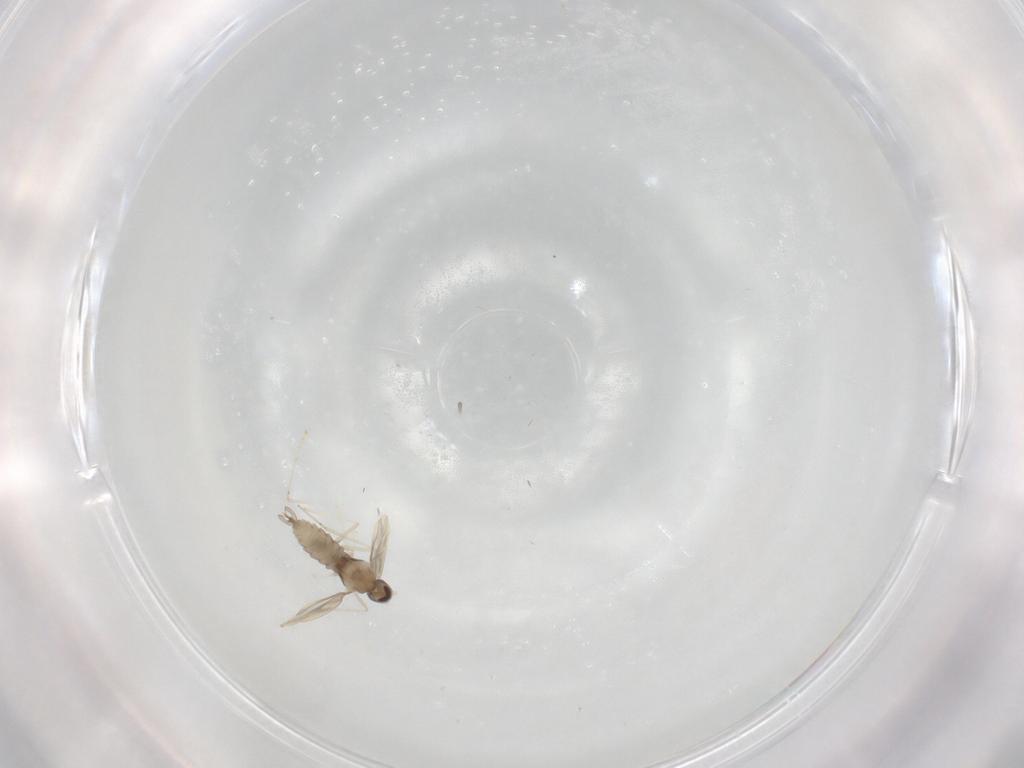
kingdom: Animalia
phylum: Arthropoda
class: Insecta
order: Diptera
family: Cecidomyiidae
